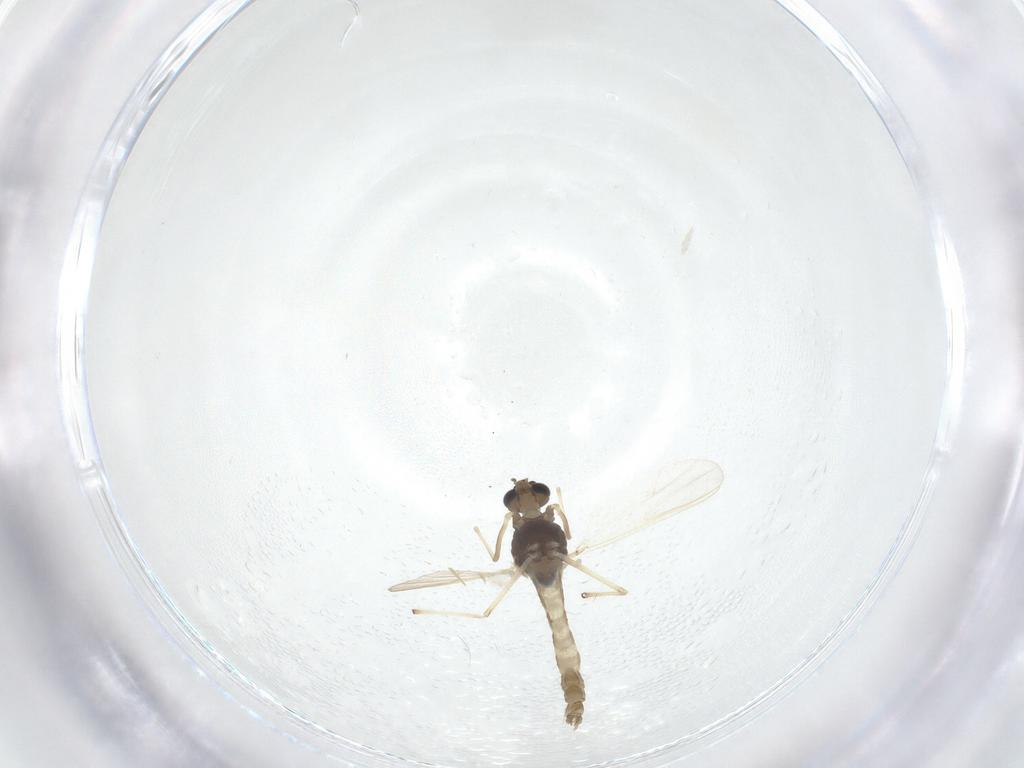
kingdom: Animalia
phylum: Arthropoda
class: Insecta
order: Diptera
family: Chironomidae
